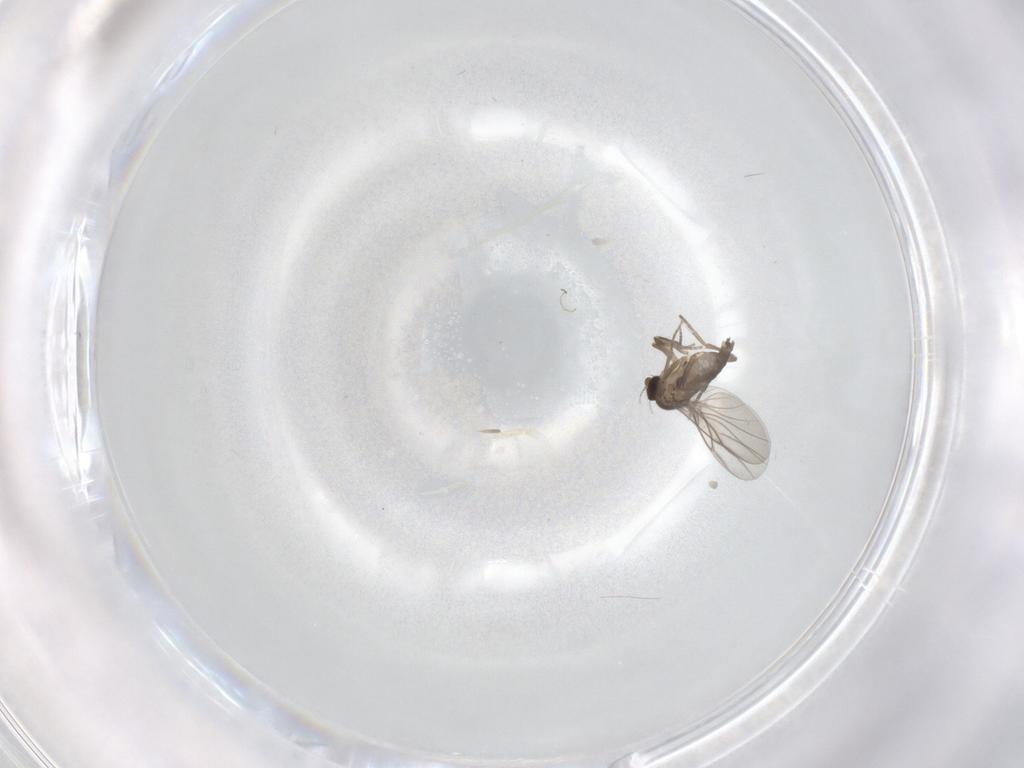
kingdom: Animalia
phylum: Arthropoda
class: Insecta
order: Diptera
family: Phoridae
